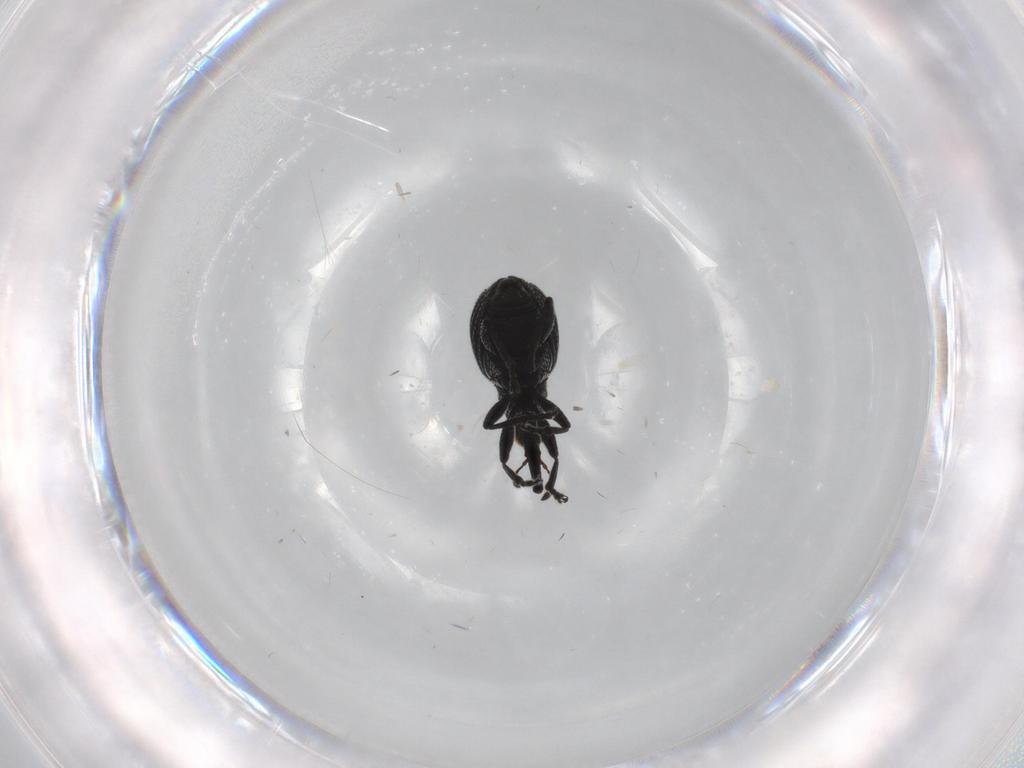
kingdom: Animalia
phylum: Arthropoda
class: Insecta
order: Coleoptera
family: Brentidae
